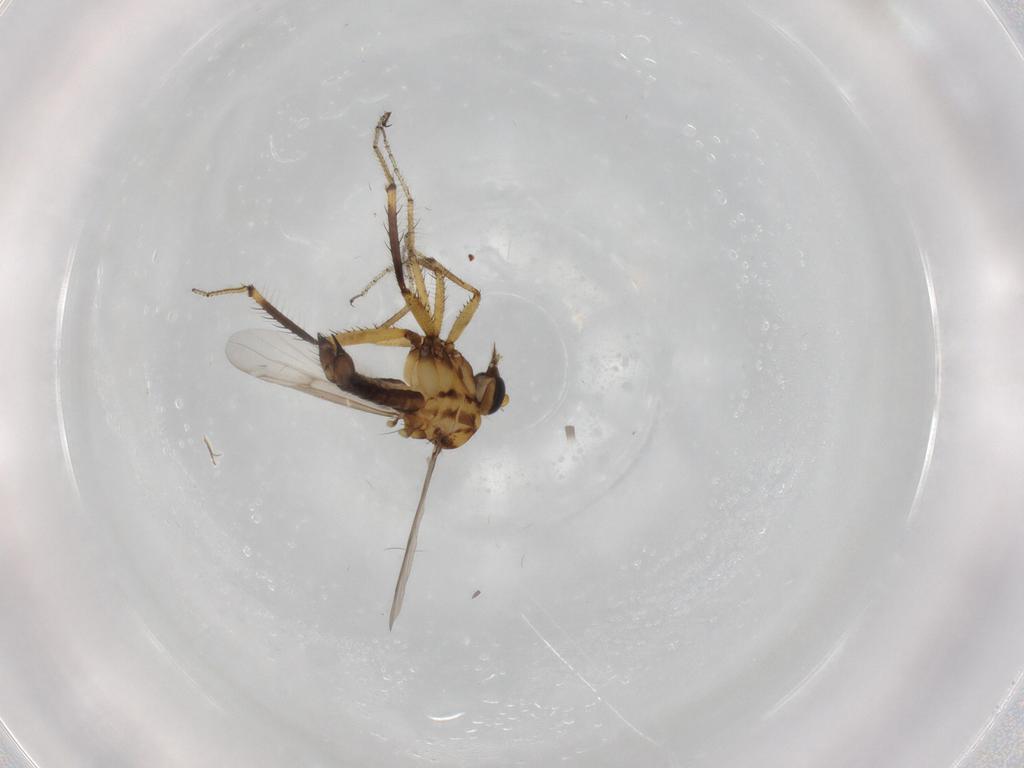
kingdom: Animalia
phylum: Arthropoda
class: Insecta
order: Diptera
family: Ceratopogonidae
